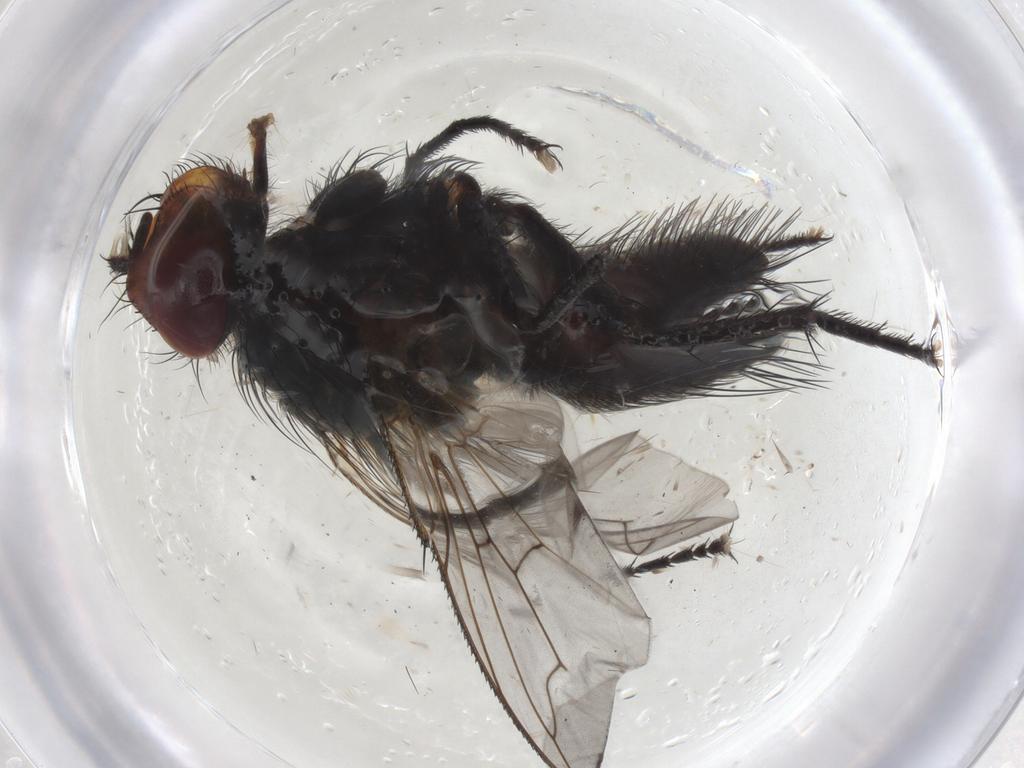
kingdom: Animalia
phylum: Arthropoda
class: Insecta
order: Diptera
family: Tachinidae
